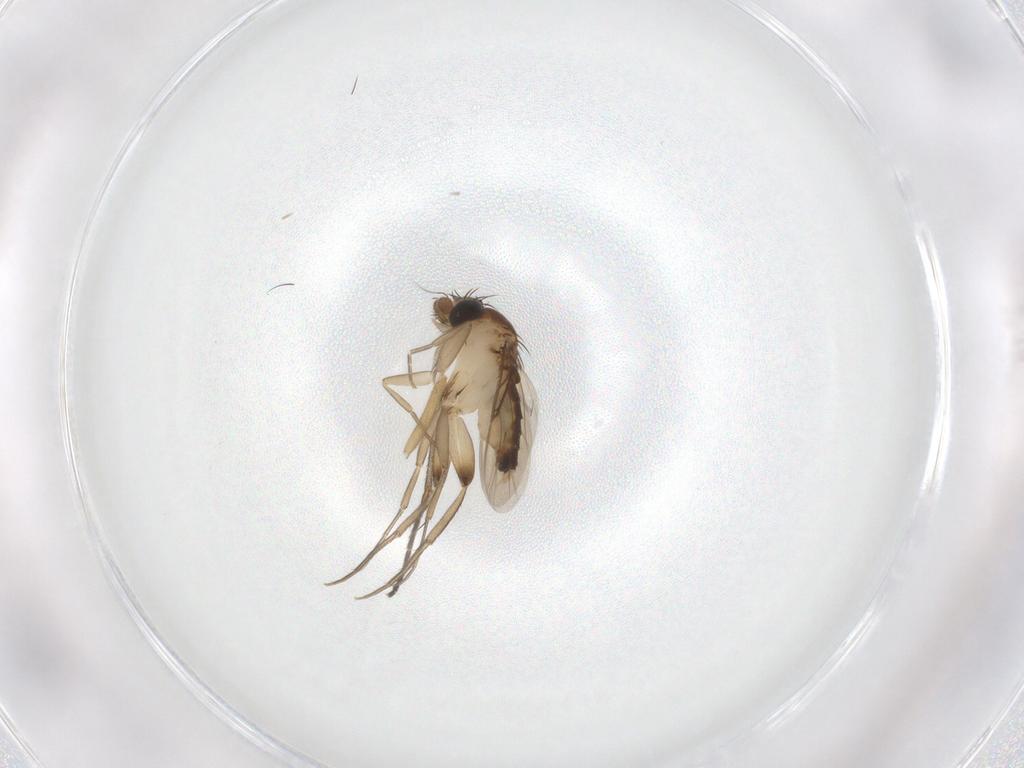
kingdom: Animalia
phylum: Arthropoda
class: Insecta
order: Diptera
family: Phoridae
